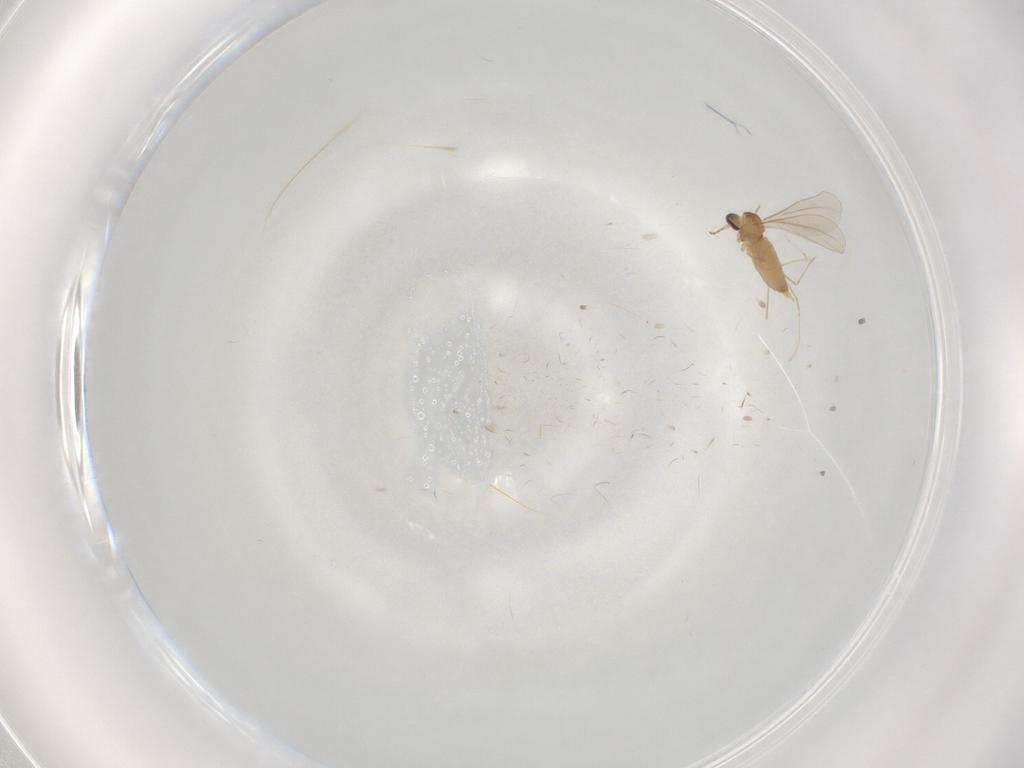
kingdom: Animalia
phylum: Arthropoda
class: Insecta
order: Diptera
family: Cecidomyiidae
